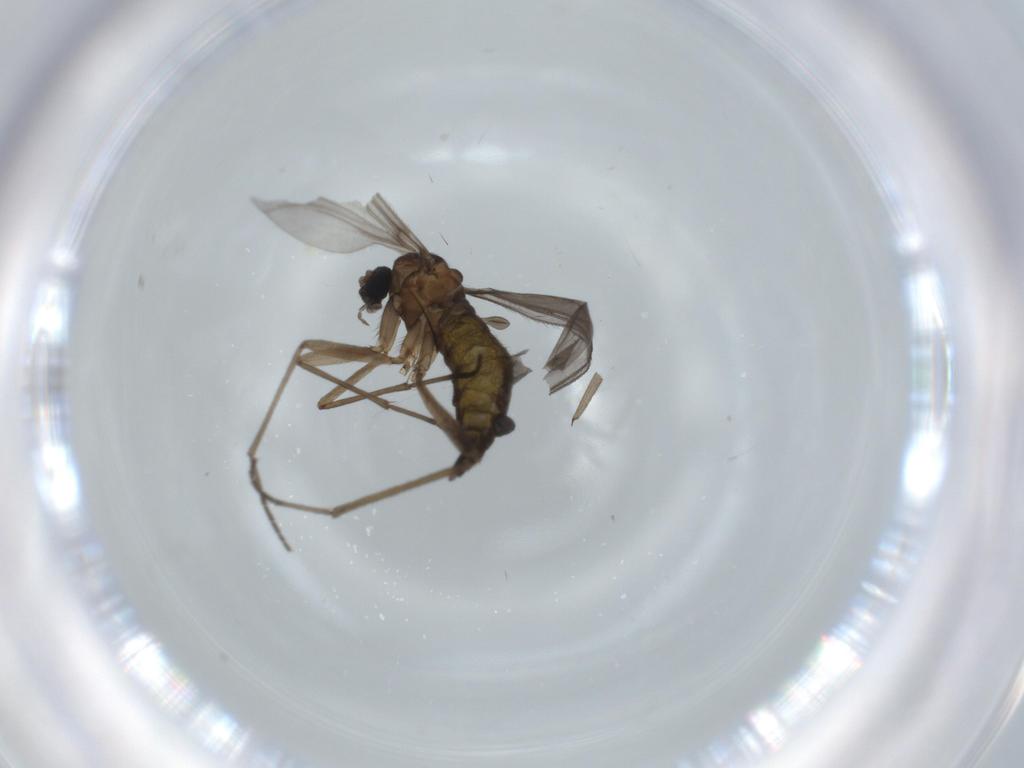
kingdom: Animalia
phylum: Arthropoda
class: Insecta
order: Diptera
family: Sciaridae
